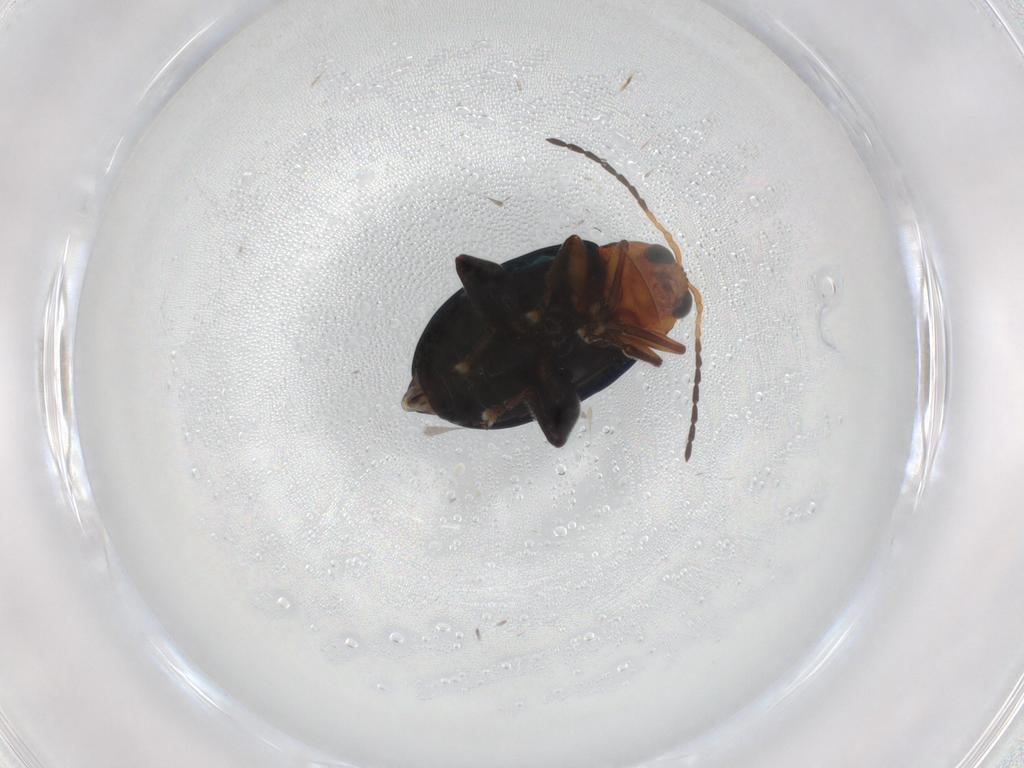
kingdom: Animalia
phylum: Arthropoda
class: Insecta
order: Coleoptera
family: Chrysomelidae
